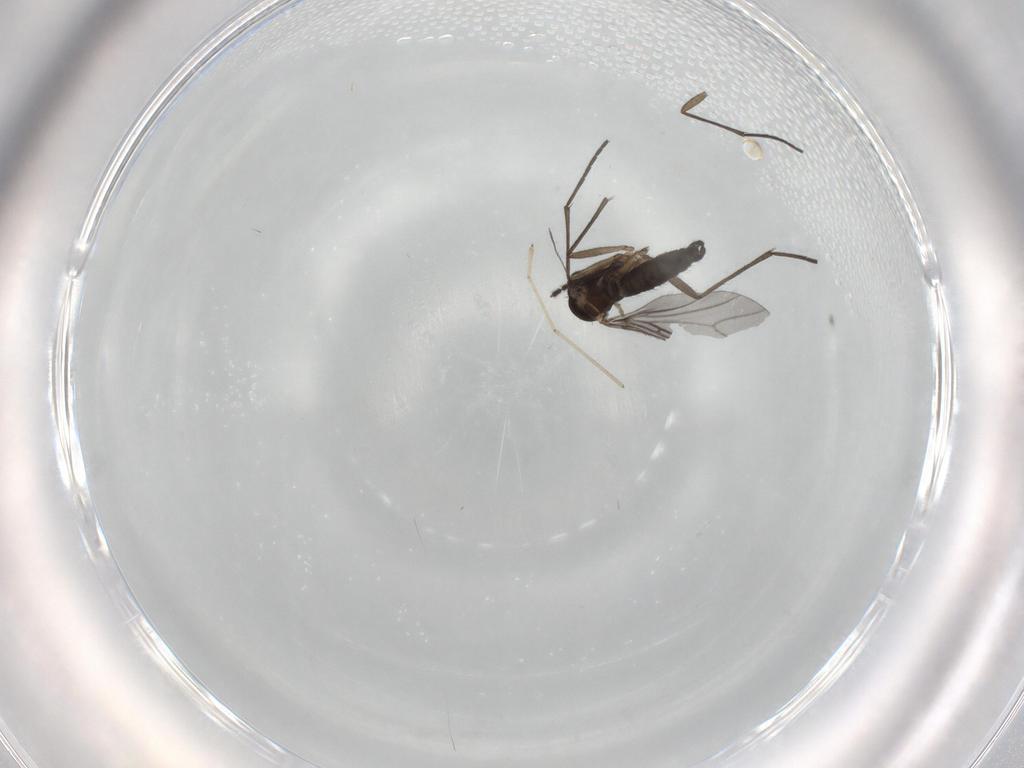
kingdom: Animalia
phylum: Arthropoda
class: Insecta
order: Diptera
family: Sciaridae
